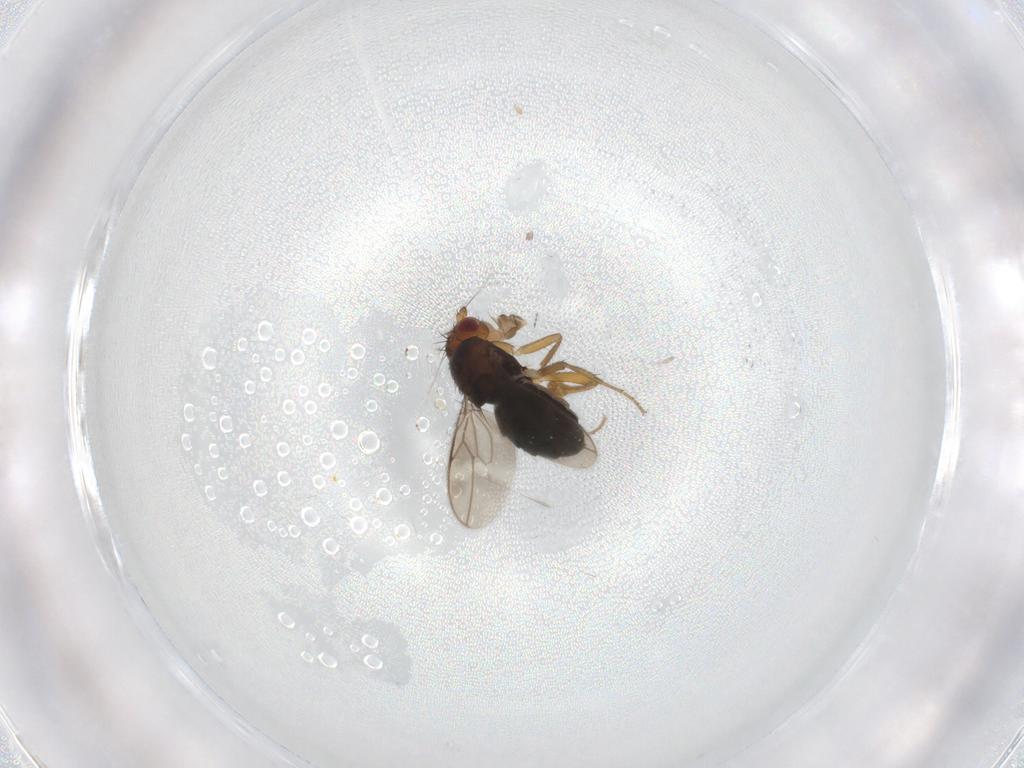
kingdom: Animalia
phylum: Arthropoda
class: Insecta
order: Diptera
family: Sphaeroceridae
